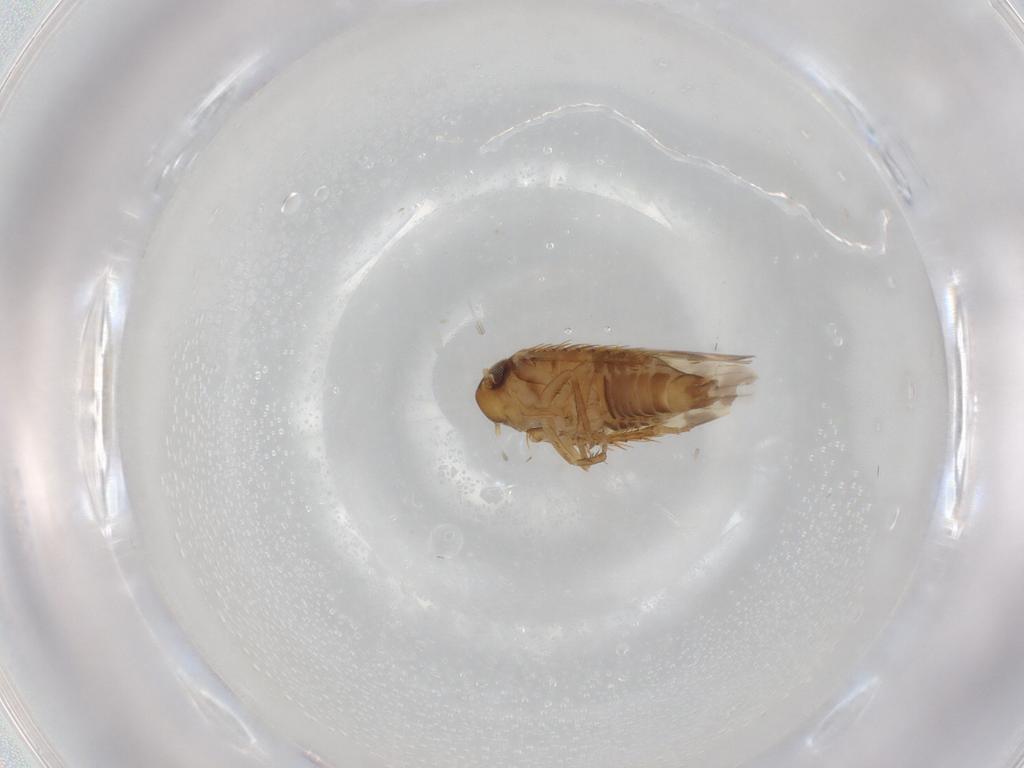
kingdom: Animalia
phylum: Arthropoda
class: Insecta
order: Hemiptera
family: Cicadellidae
